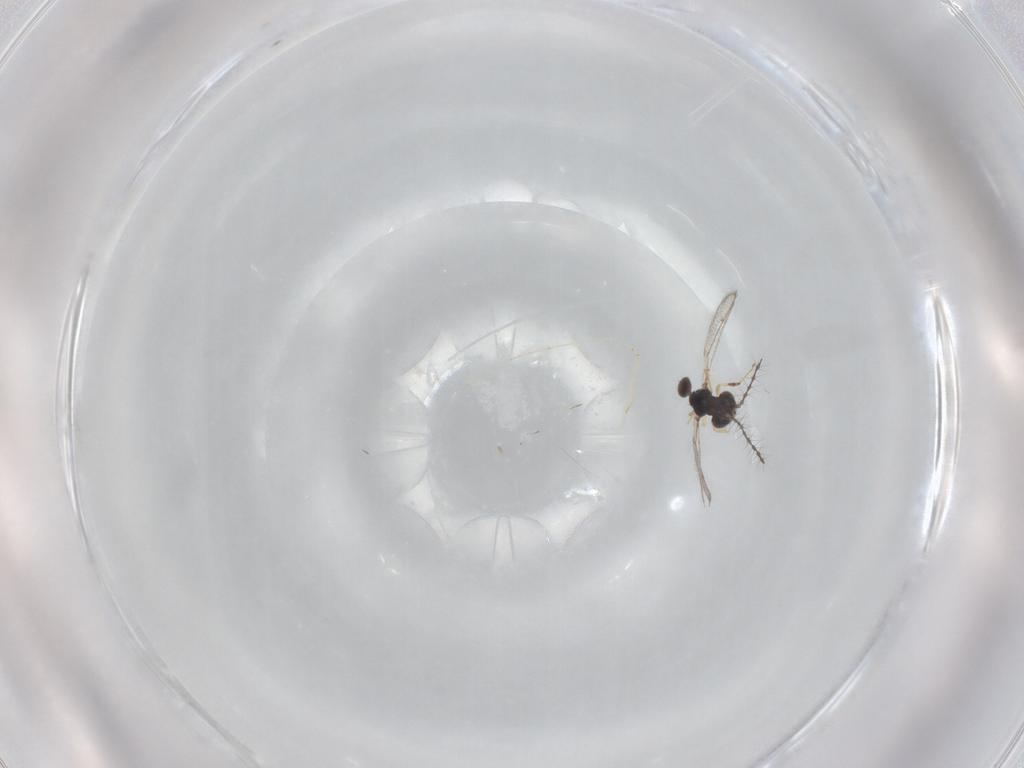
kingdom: Animalia
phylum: Arthropoda
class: Insecta
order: Hymenoptera
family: Pteromalidae
